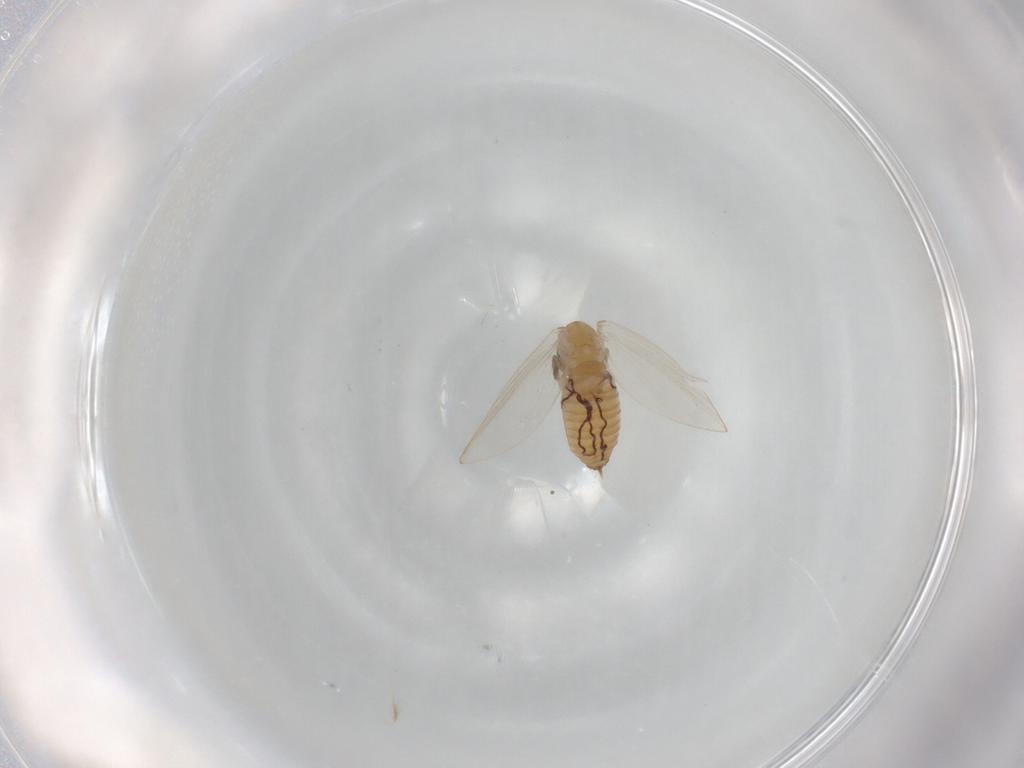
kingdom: Animalia
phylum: Arthropoda
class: Insecta
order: Diptera
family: Psychodidae
